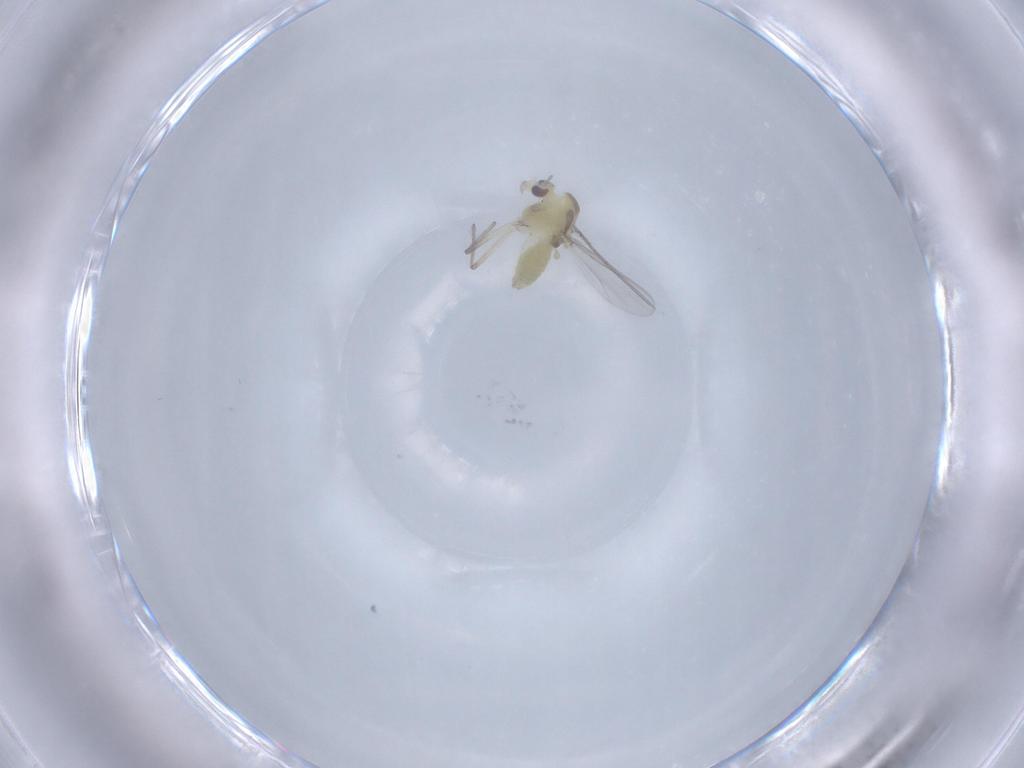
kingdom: Animalia
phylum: Arthropoda
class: Insecta
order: Diptera
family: Chironomidae
